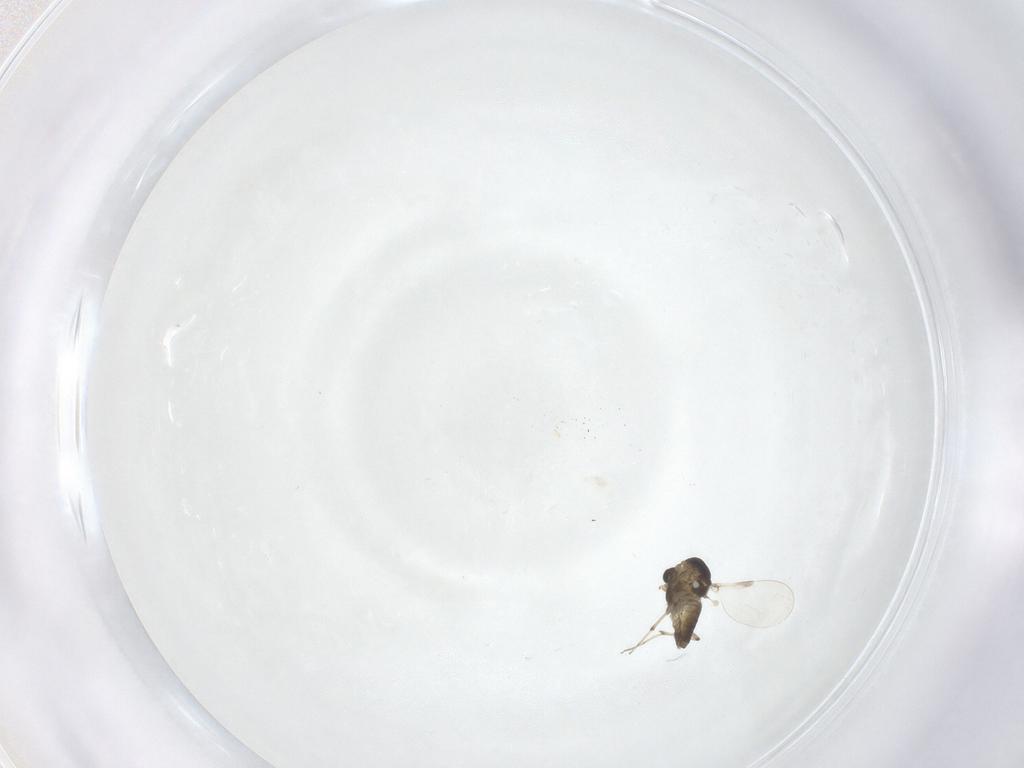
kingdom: Animalia
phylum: Arthropoda
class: Insecta
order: Diptera
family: Chironomidae
